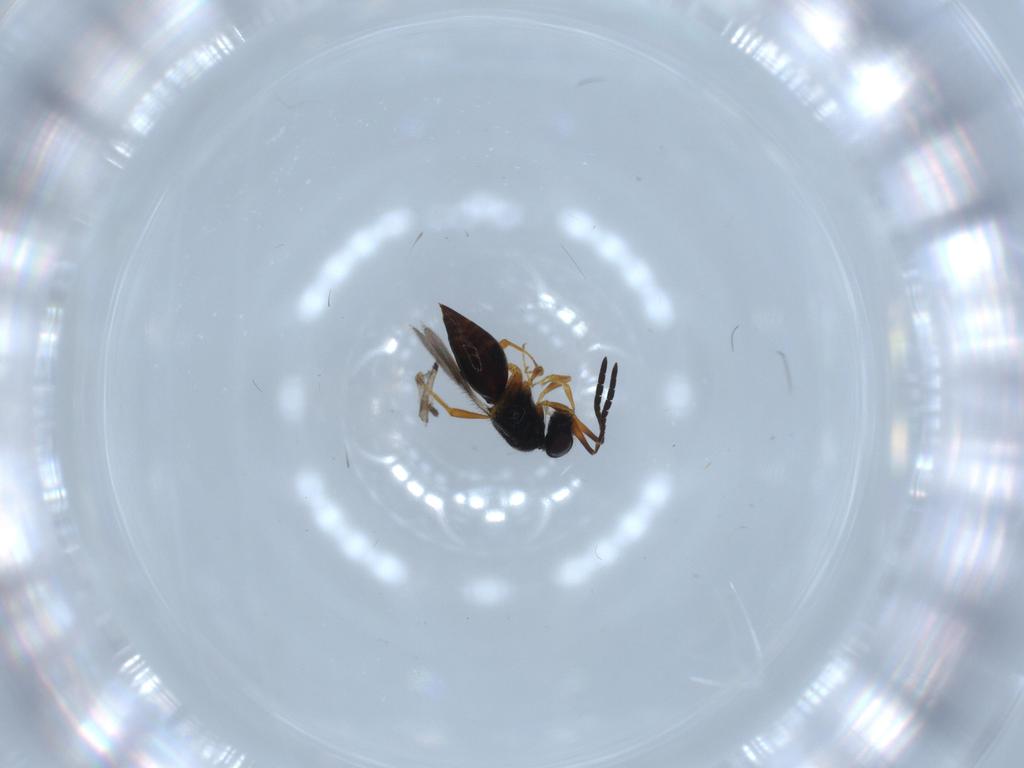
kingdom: Animalia
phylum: Arthropoda
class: Insecta
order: Hymenoptera
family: Ceraphronidae
